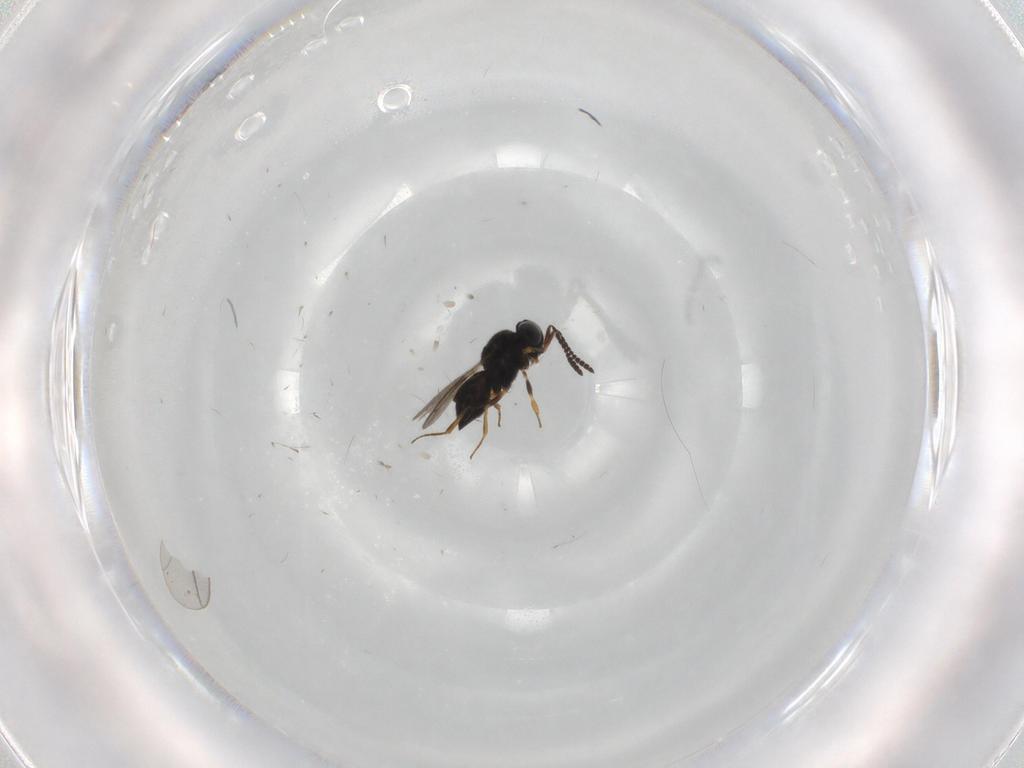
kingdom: Animalia
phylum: Arthropoda
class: Insecta
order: Hymenoptera
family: Scelionidae
